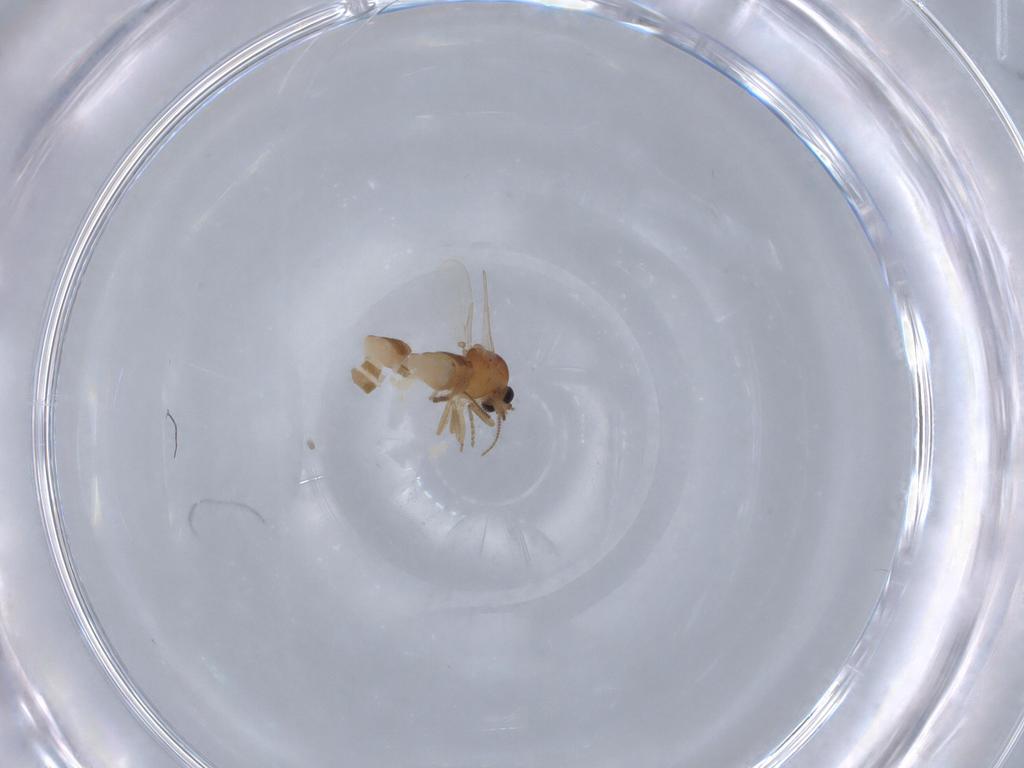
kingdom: Animalia
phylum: Arthropoda
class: Insecta
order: Diptera
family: Ceratopogonidae
